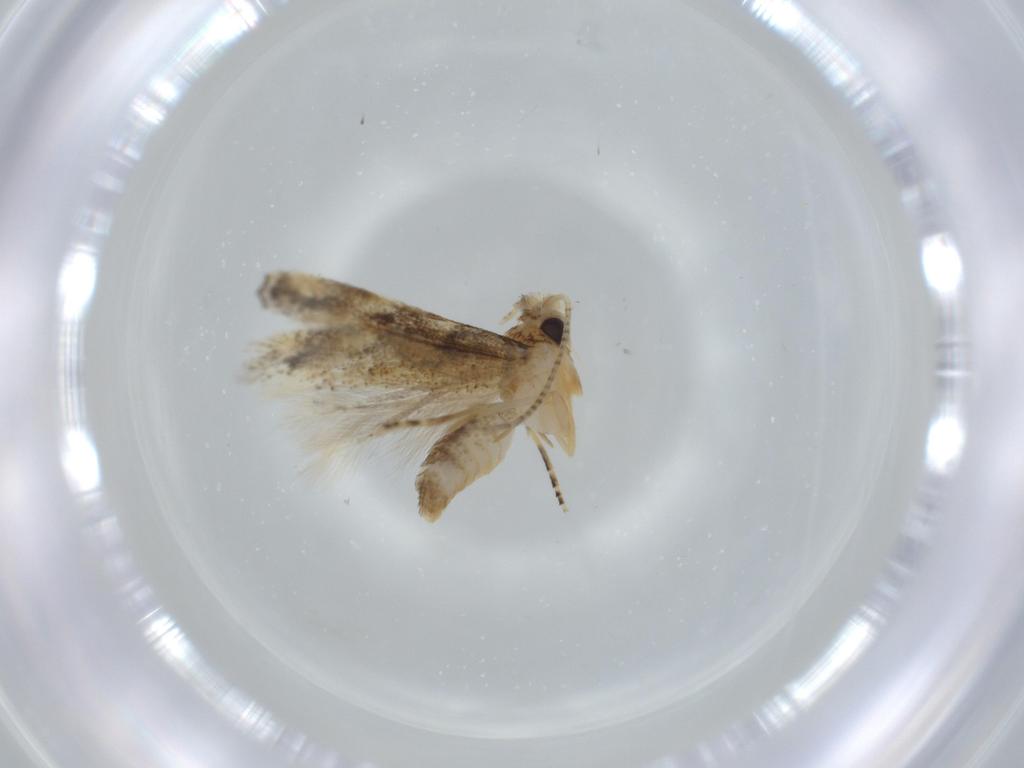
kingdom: Animalia
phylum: Arthropoda
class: Insecta
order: Lepidoptera
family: Bucculatricidae
